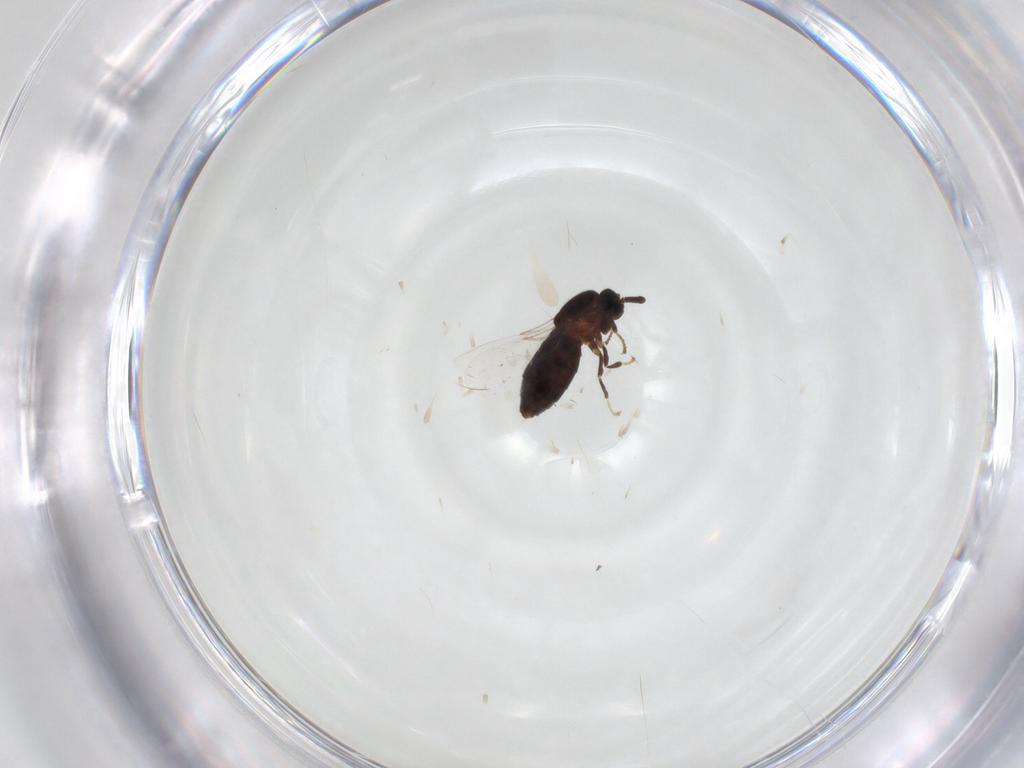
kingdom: Animalia
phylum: Arthropoda
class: Insecta
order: Diptera
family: Scatopsidae
